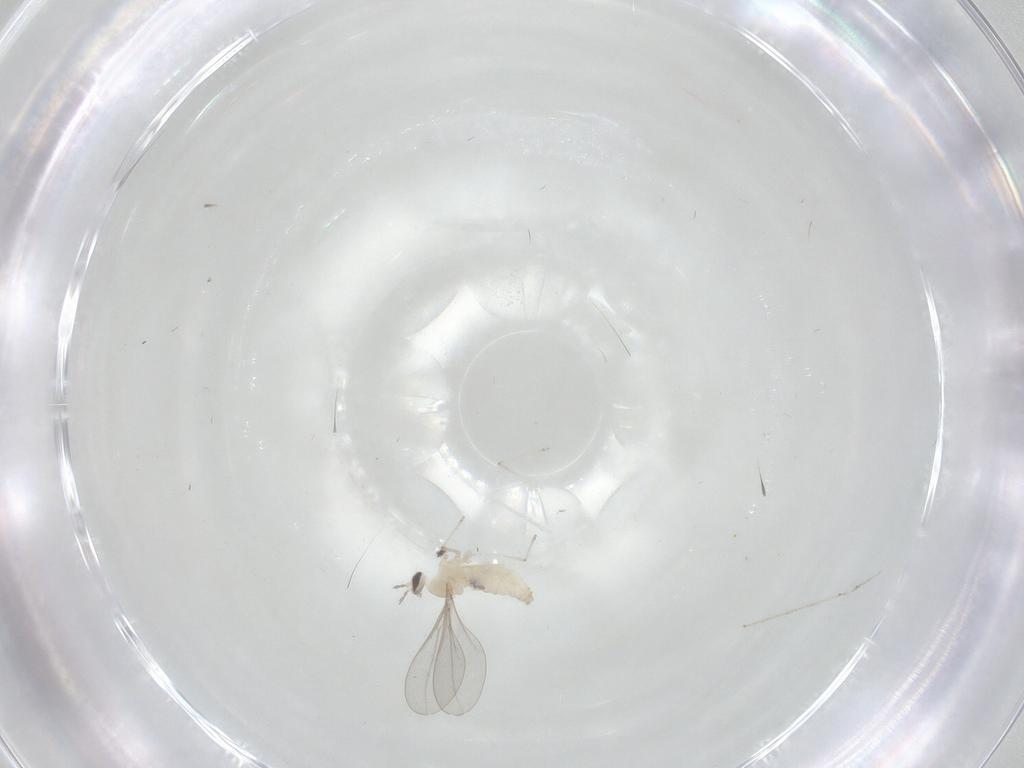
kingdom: Animalia
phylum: Arthropoda
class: Insecta
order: Diptera
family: Cecidomyiidae
